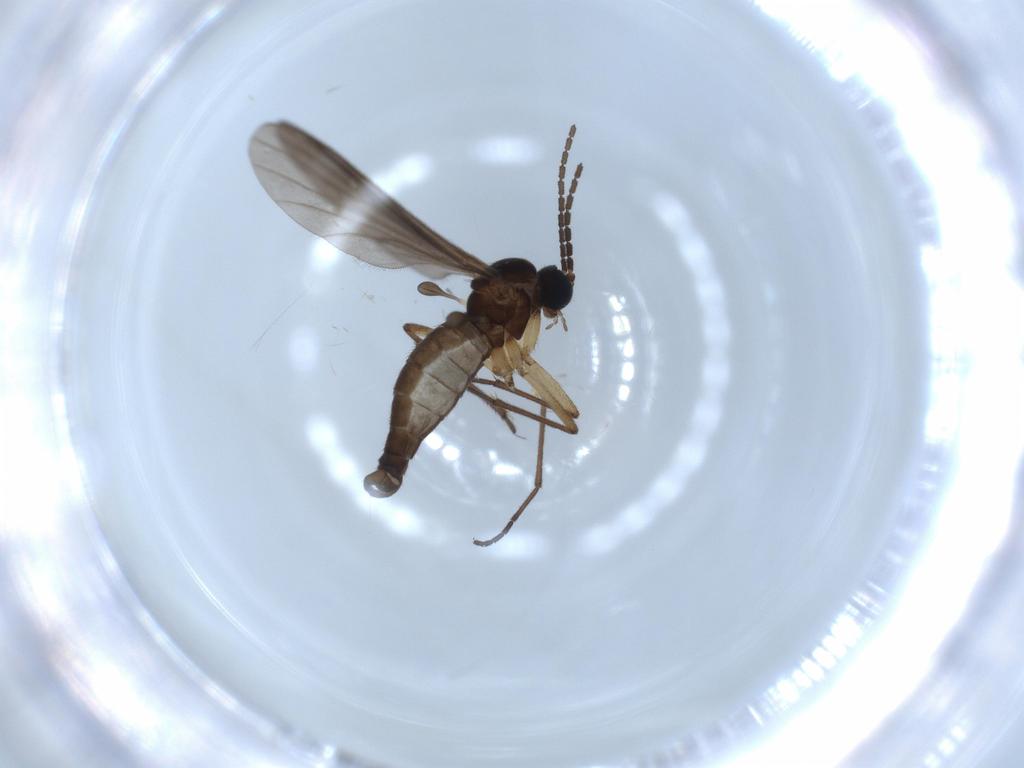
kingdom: Animalia
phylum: Arthropoda
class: Insecta
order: Diptera
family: Sciaridae
